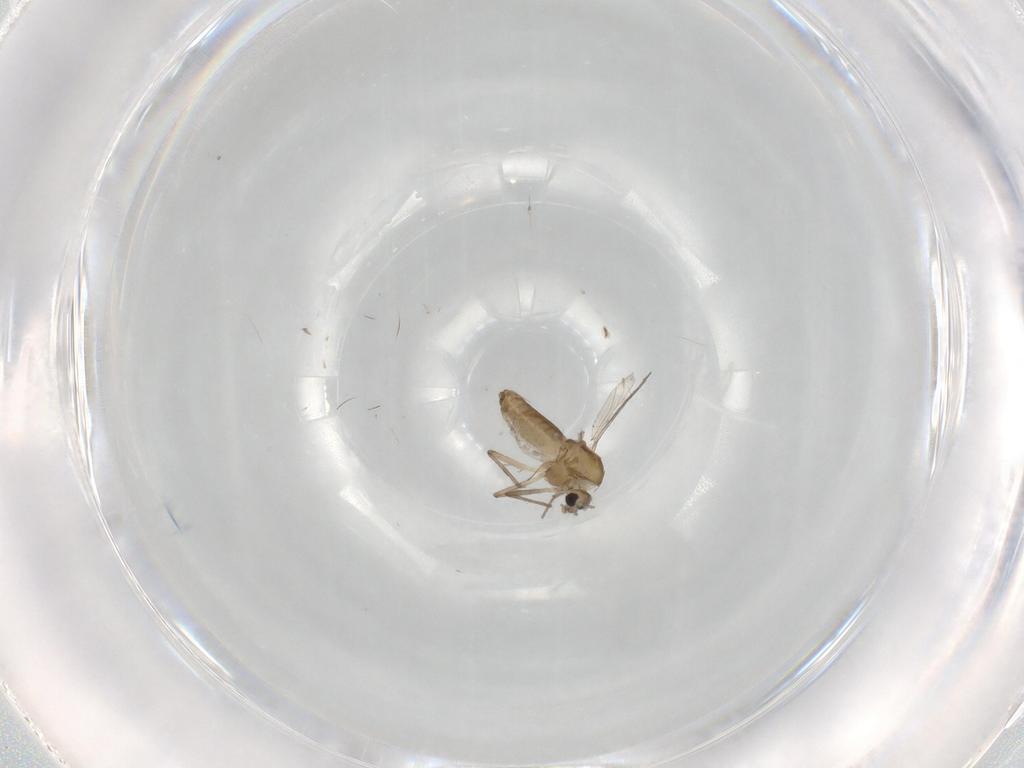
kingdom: Animalia
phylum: Arthropoda
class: Insecta
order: Diptera
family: Chironomidae
